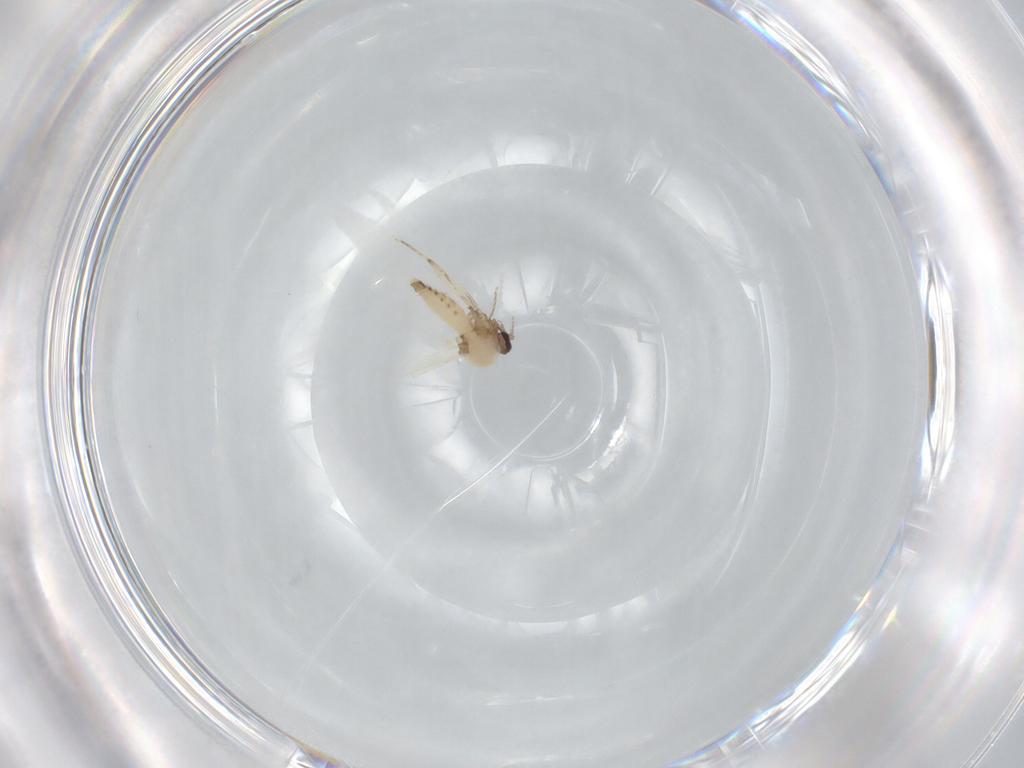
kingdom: Animalia
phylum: Arthropoda
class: Insecta
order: Diptera
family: Ceratopogonidae
